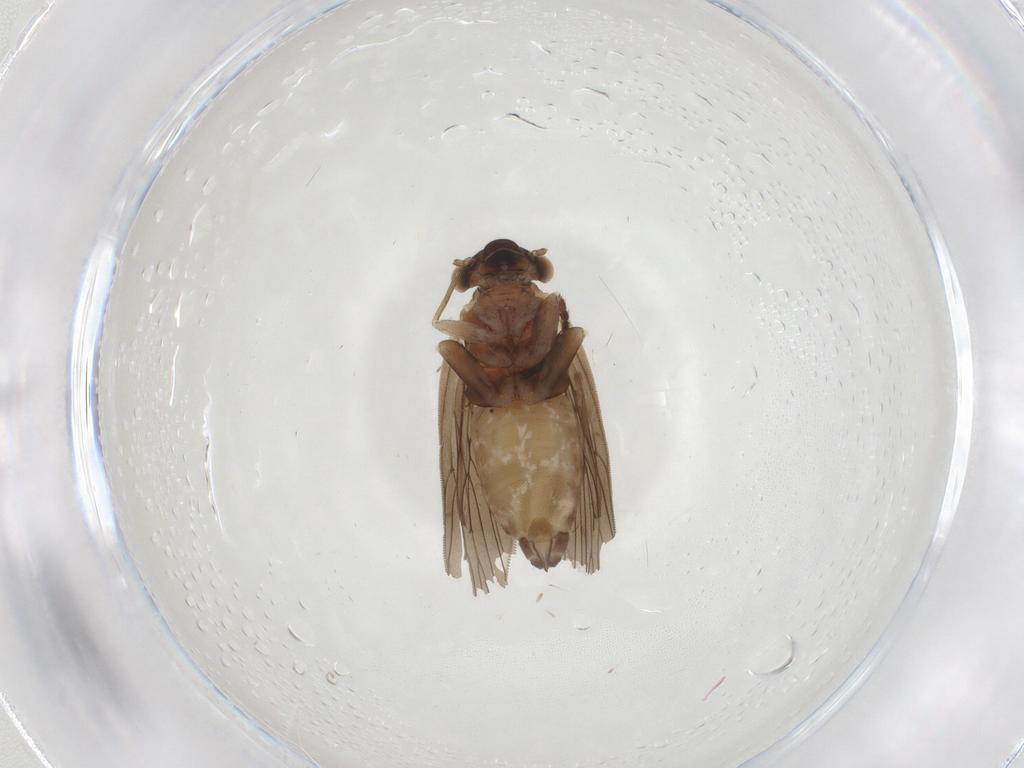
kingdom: Animalia
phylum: Arthropoda
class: Insecta
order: Psocodea
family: Lepidopsocidae
